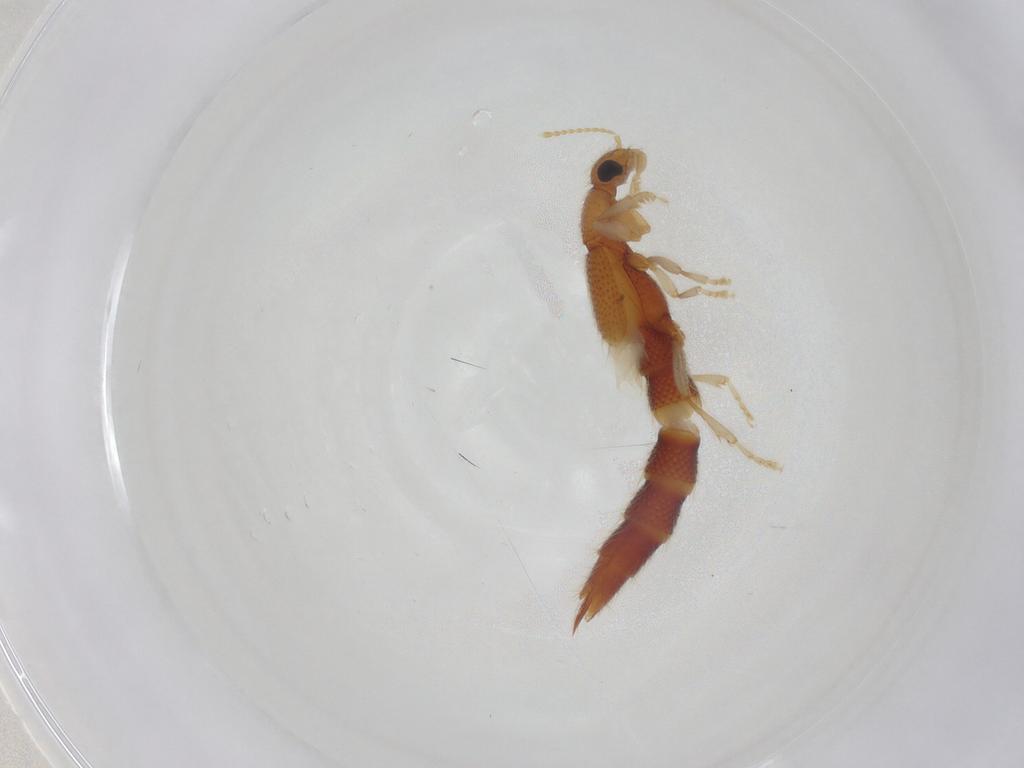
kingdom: Animalia
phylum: Arthropoda
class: Insecta
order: Coleoptera
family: Staphylinidae
